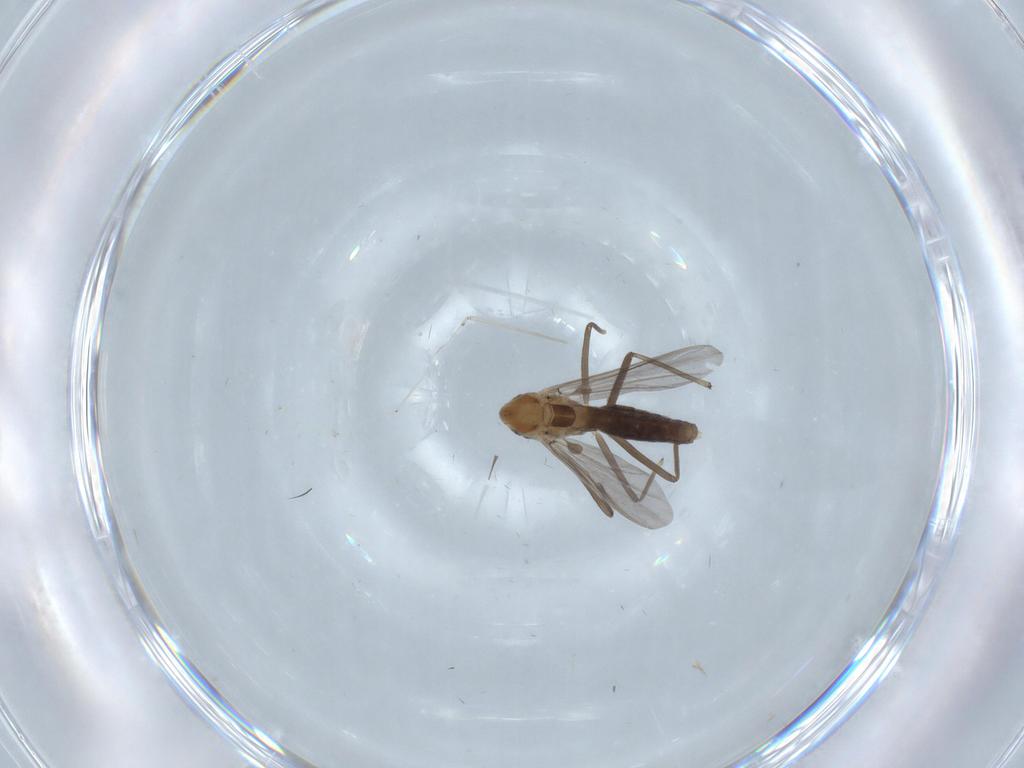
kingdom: Animalia
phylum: Arthropoda
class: Insecta
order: Diptera
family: Chironomidae
